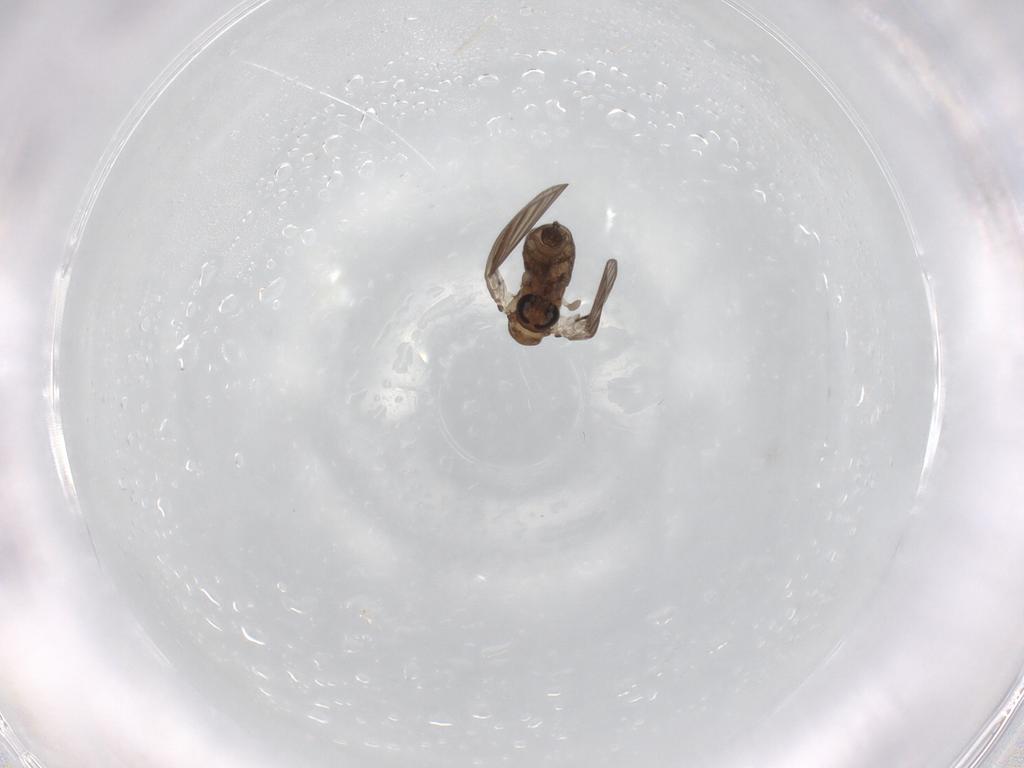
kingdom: Animalia
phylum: Arthropoda
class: Insecta
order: Diptera
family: Psychodidae
